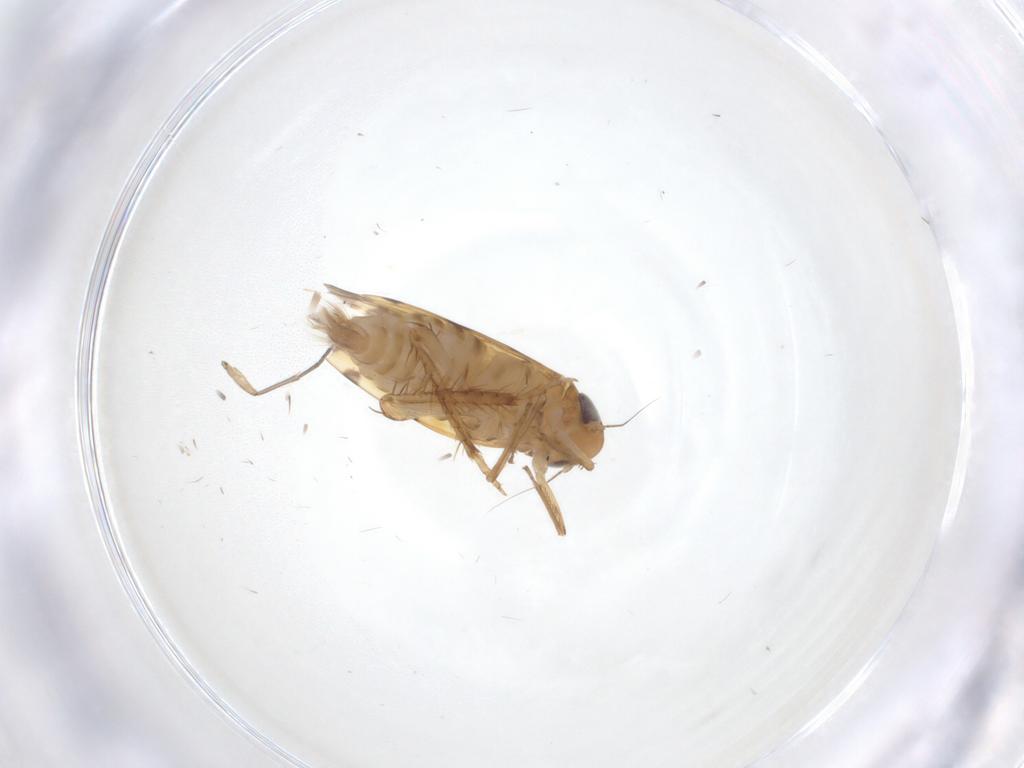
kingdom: Animalia
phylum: Arthropoda
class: Insecta
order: Hemiptera
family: Cicadellidae
